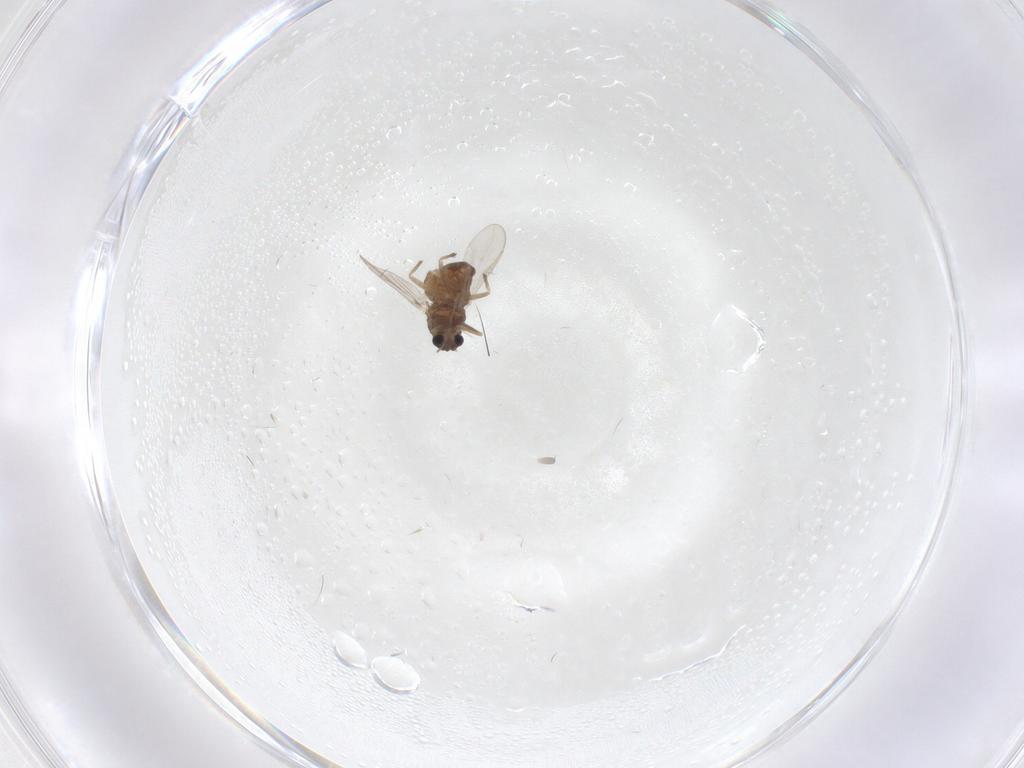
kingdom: Animalia
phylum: Arthropoda
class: Insecta
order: Diptera
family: Chironomidae
